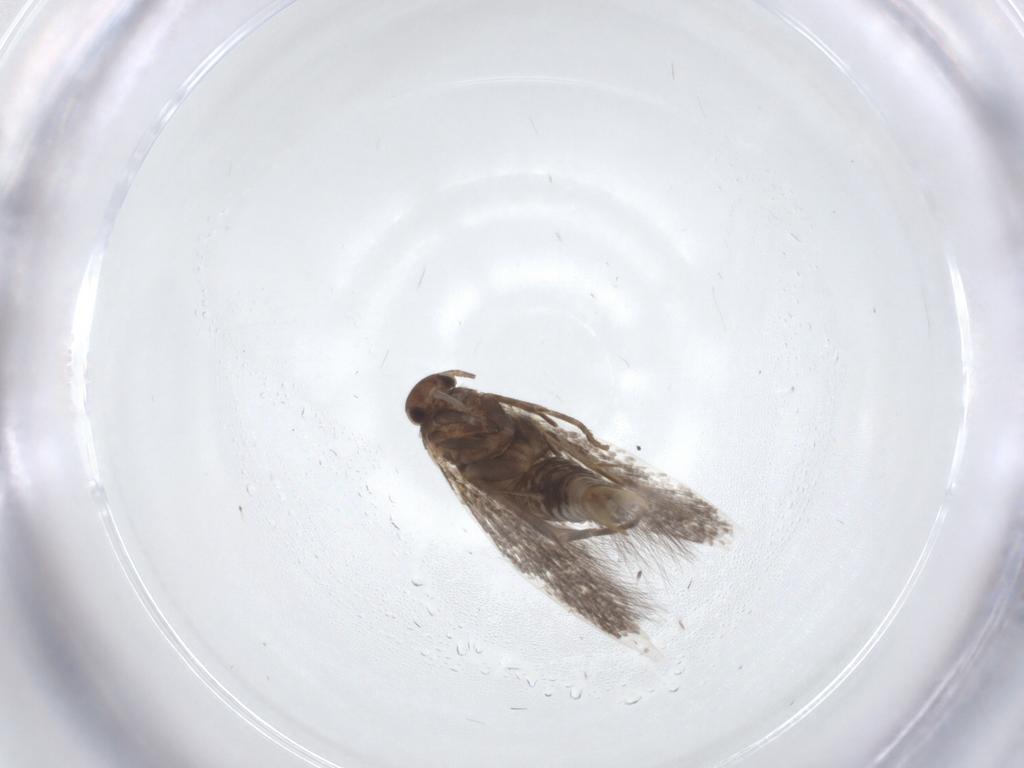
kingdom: Animalia
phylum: Arthropoda
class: Insecta
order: Lepidoptera
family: Elachistidae
